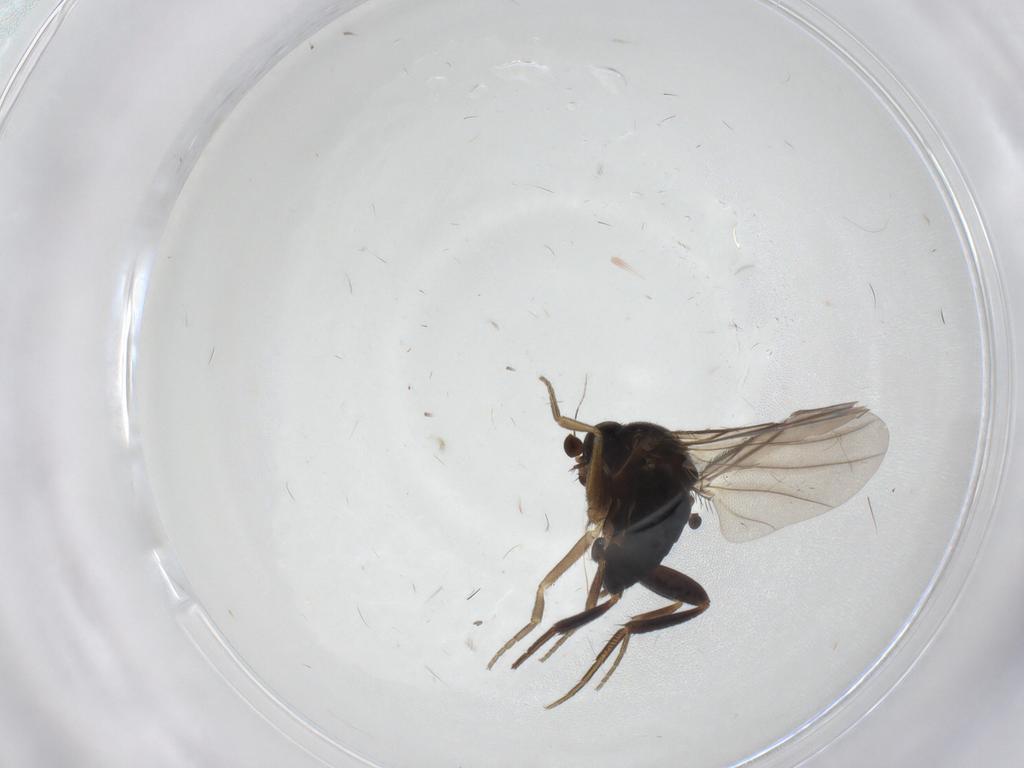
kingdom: Animalia
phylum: Arthropoda
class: Insecta
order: Diptera
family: Hybotidae
